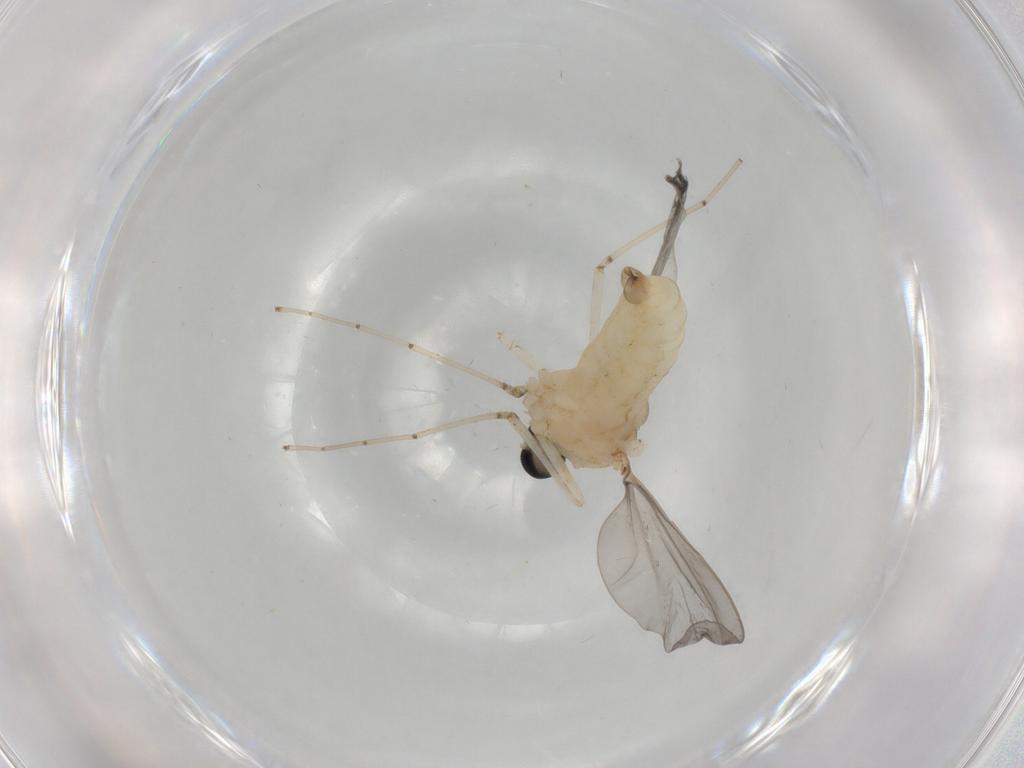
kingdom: Animalia
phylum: Arthropoda
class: Insecta
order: Diptera
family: Cecidomyiidae
